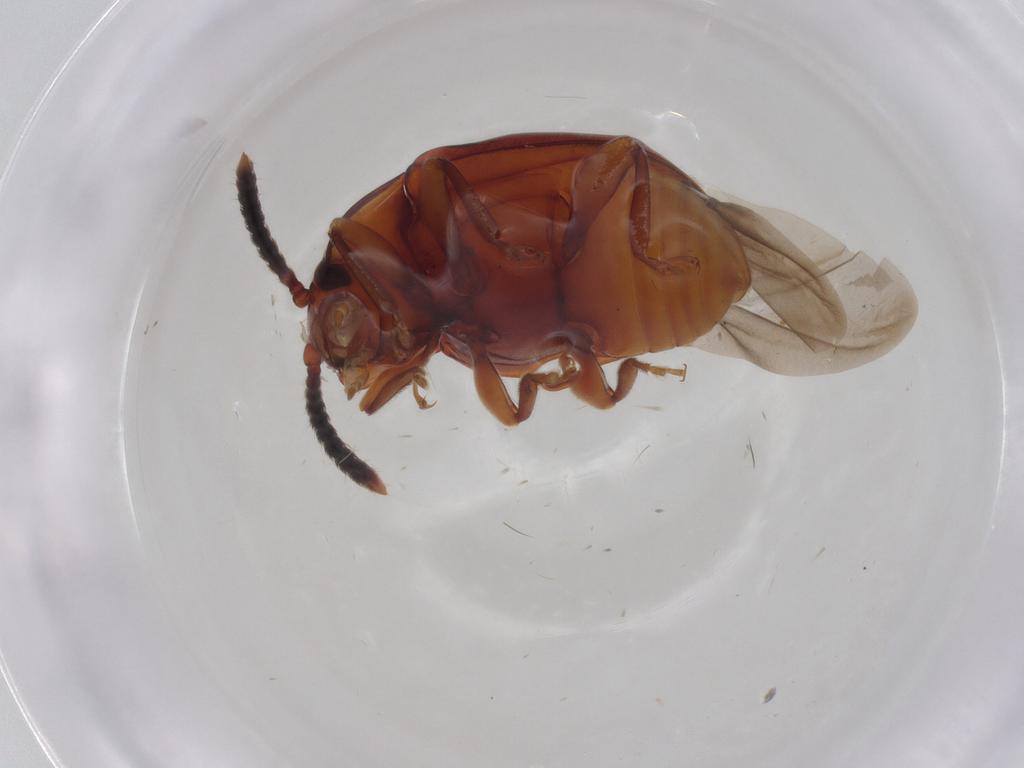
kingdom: Animalia
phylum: Arthropoda
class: Insecta
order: Coleoptera
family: Endomychidae
